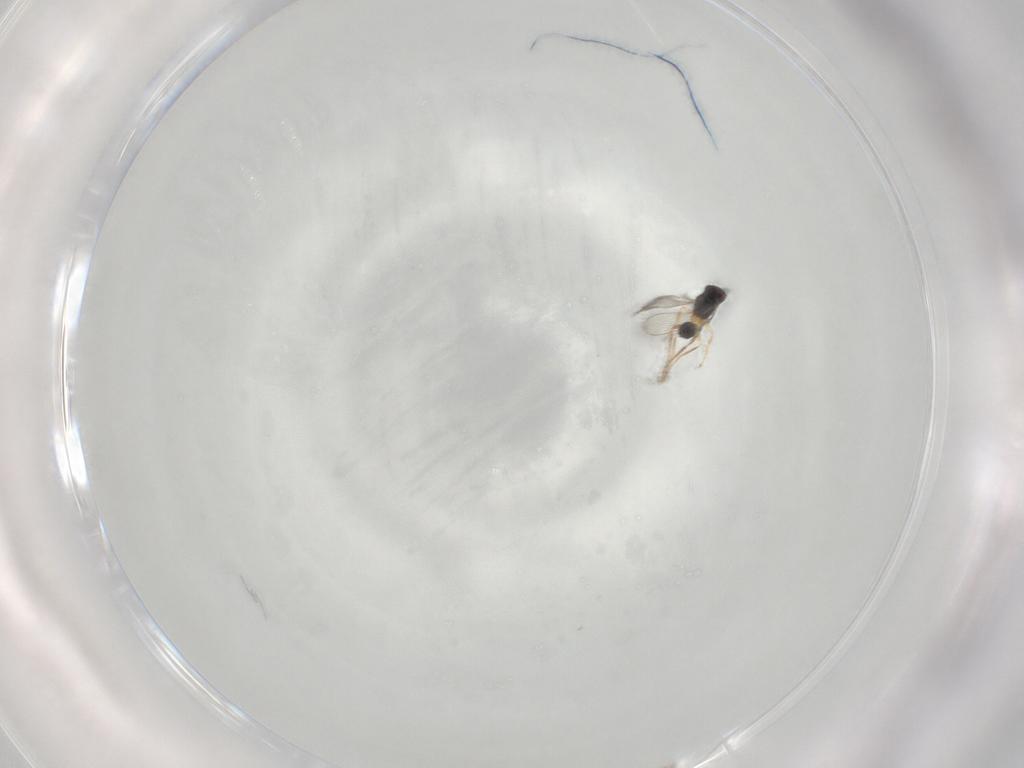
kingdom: Animalia
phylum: Arthropoda
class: Insecta
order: Hymenoptera
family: Mymaridae
